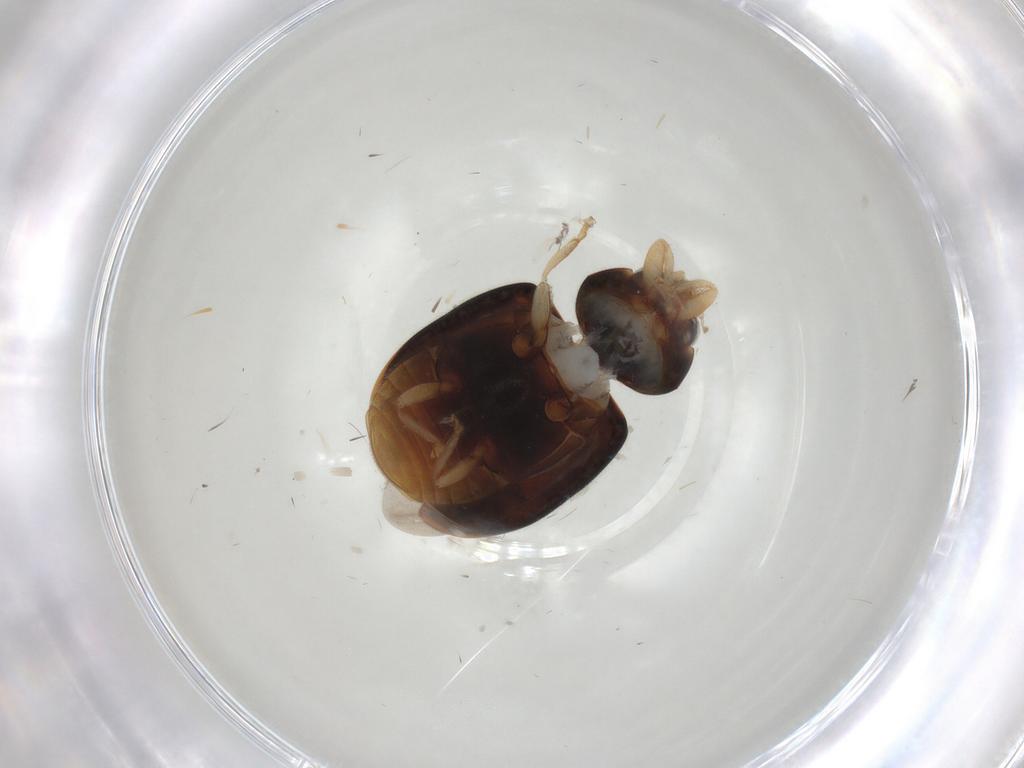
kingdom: Animalia
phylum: Arthropoda
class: Insecta
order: Coleoptera
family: Coccinellidae
